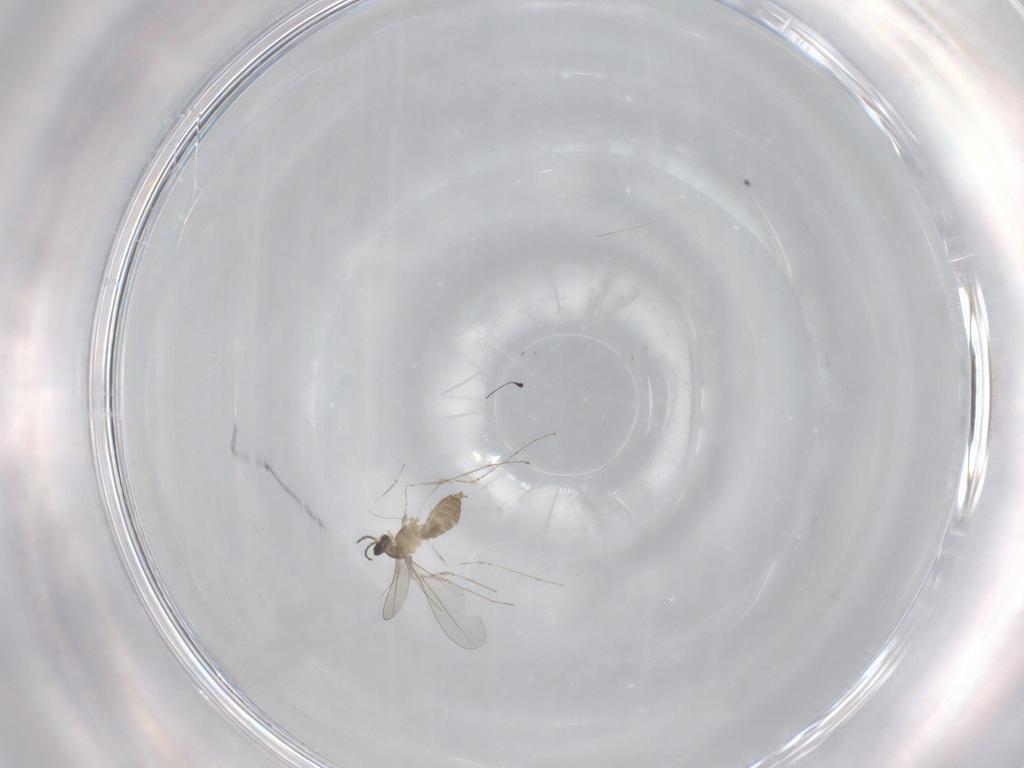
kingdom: Animalia
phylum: Arthropoda
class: Insecta
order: Diptera
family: Cecidomyiidae
